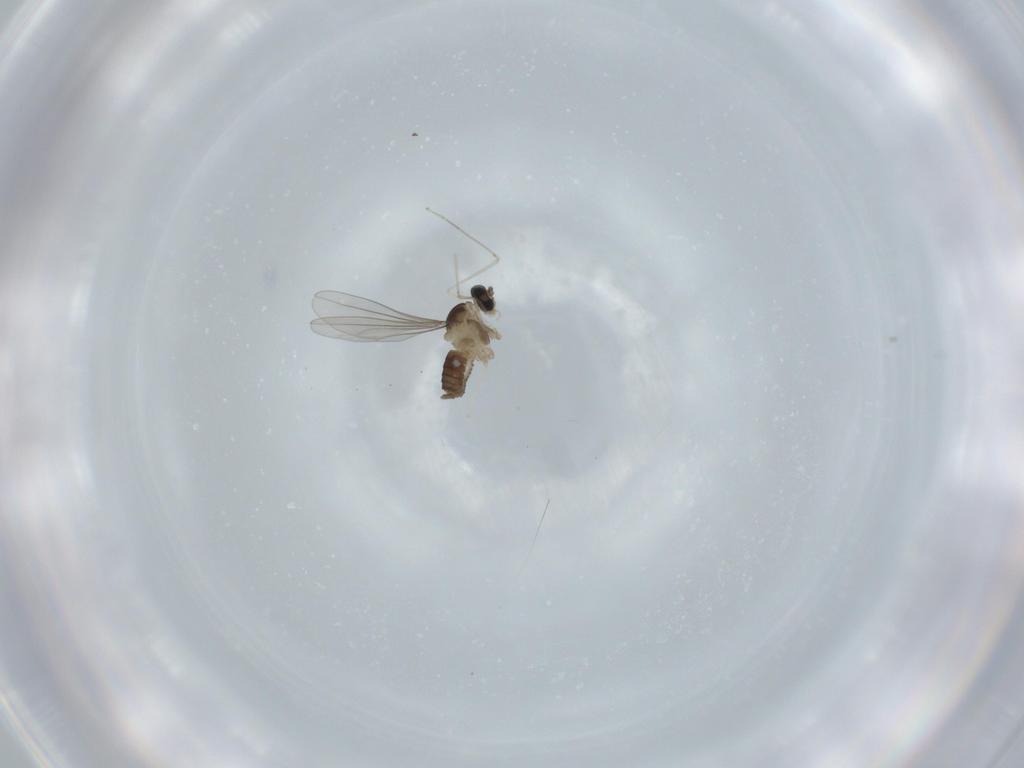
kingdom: Animalia
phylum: Arthropoda
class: Insecta
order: Diptera
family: Cecidomyiidae
